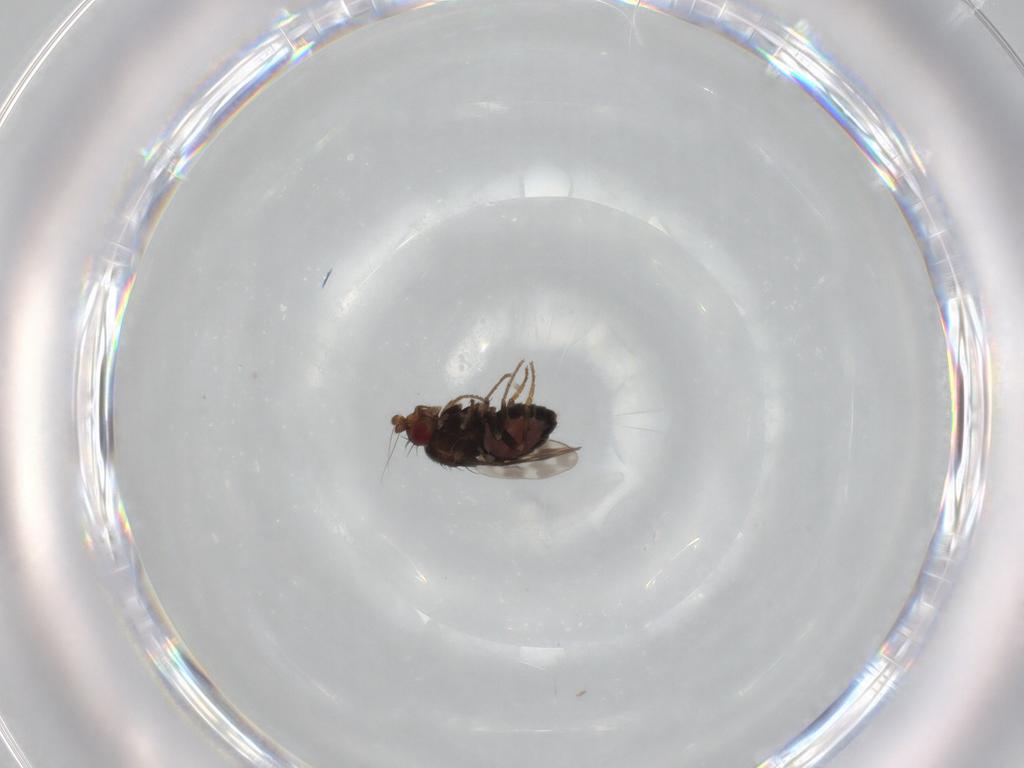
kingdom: Animalia
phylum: Arthropoda
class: Insecta
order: Diptera
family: Sphaeroceridae
